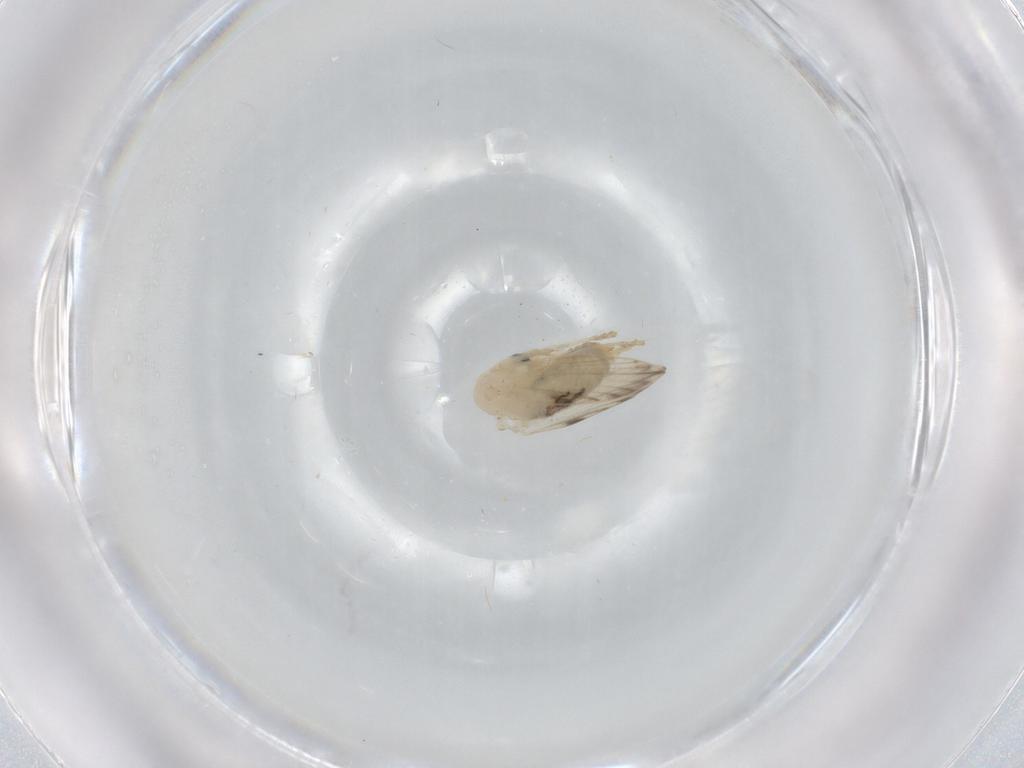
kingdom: Animalia
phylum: Arthropoda
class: Insecta
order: Diptera
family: Psychodidae
